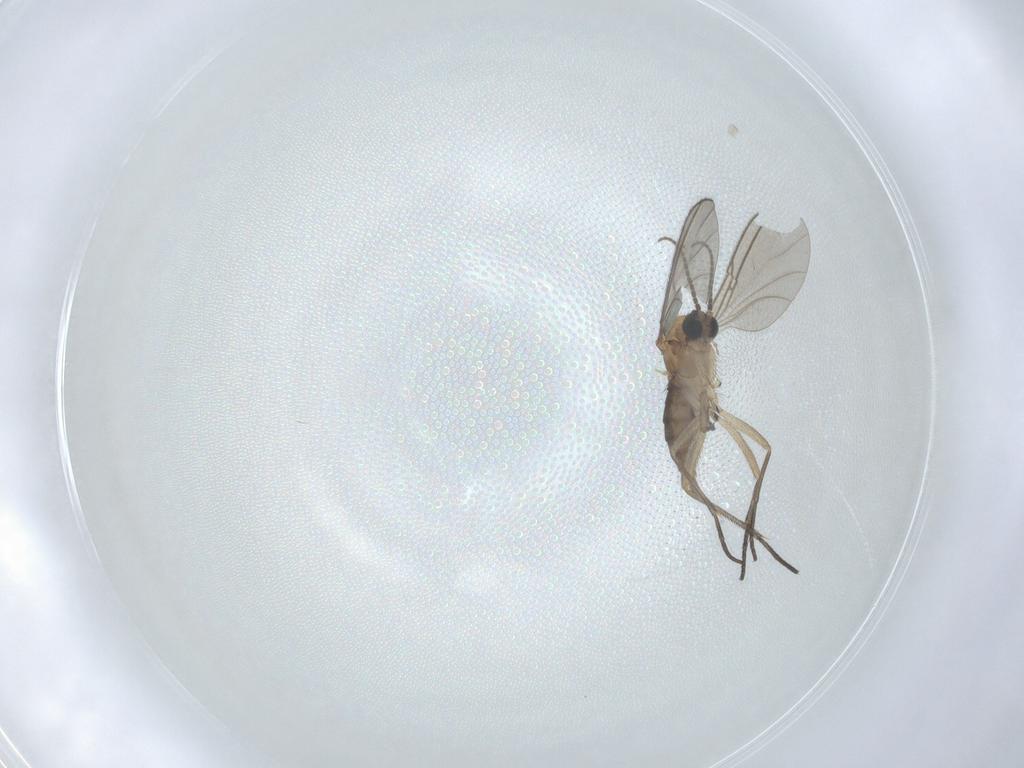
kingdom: Animalia
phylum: Arthropoda
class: Insecta
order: Diptera
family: Sciaridae
